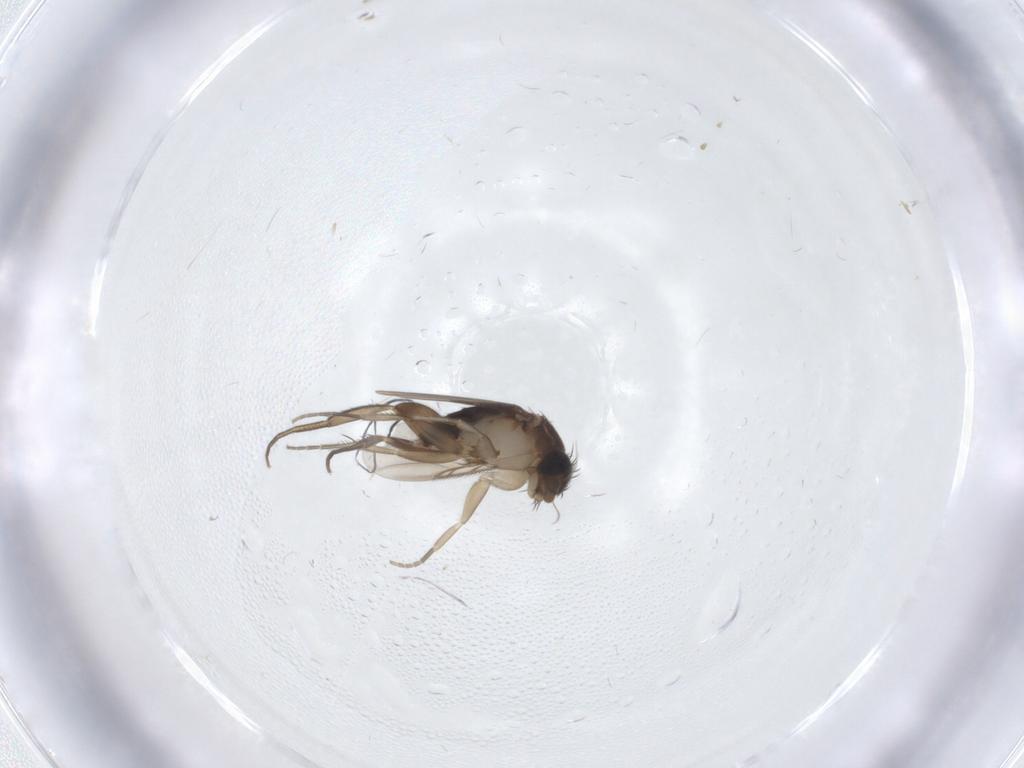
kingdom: Animalia
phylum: Arthropoda
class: Insecta
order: Diptera
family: Phoridae
